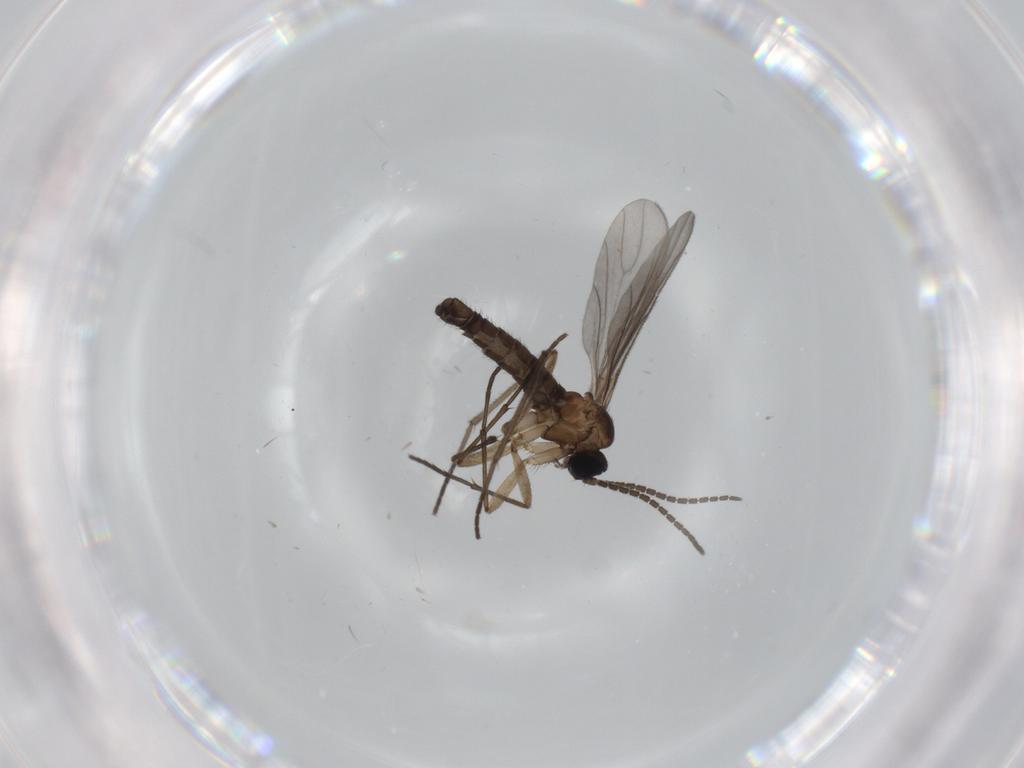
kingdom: Animalia
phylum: Arthropoda
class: Insecta
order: Diptera
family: Sciaridae
